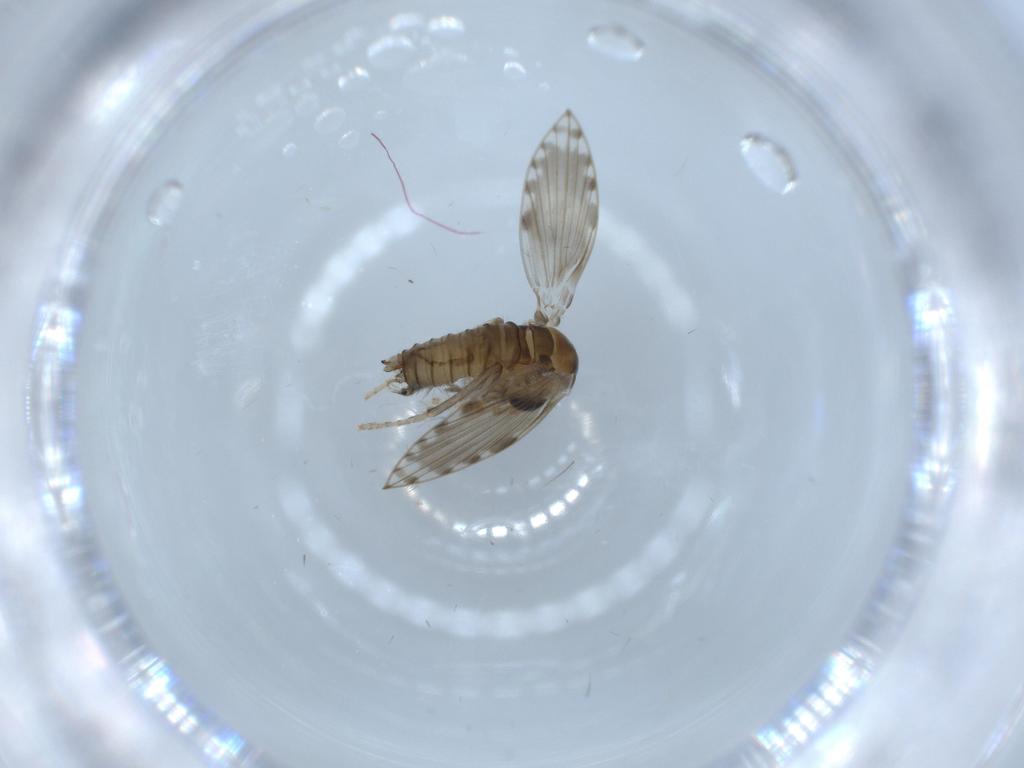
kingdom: Animalia
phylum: Arthropoda
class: Insecta
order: Diptera
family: Psychodidae
